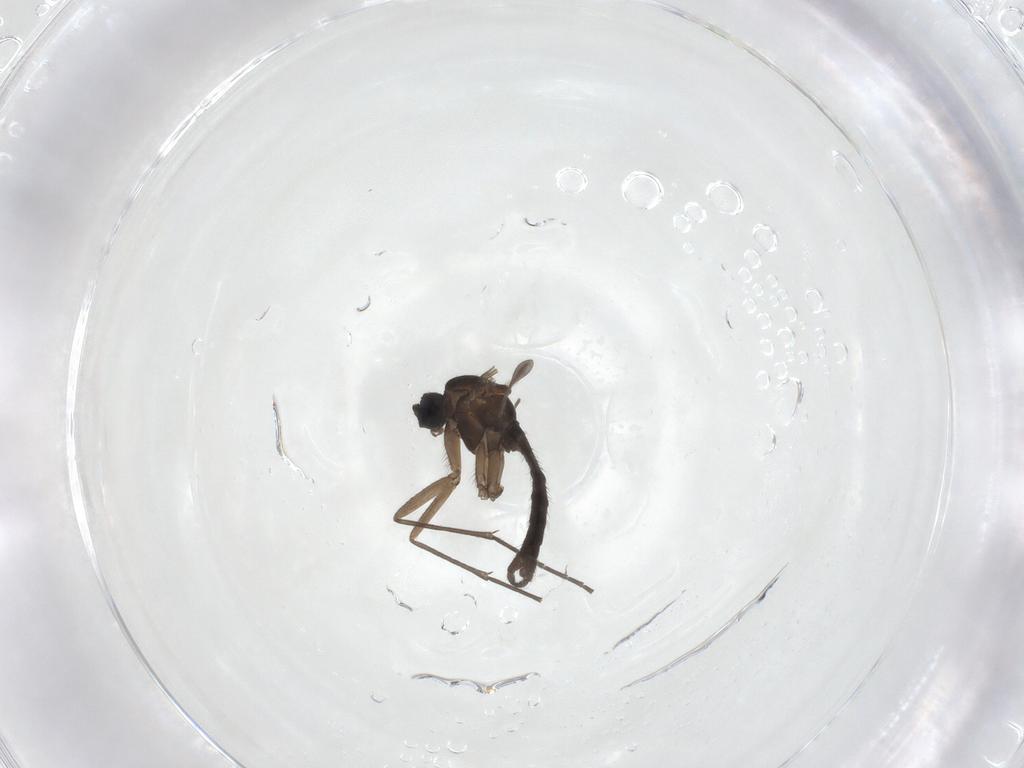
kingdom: Animalia
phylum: Arthropoda
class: Insecta
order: Diptera
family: Sciaridae
